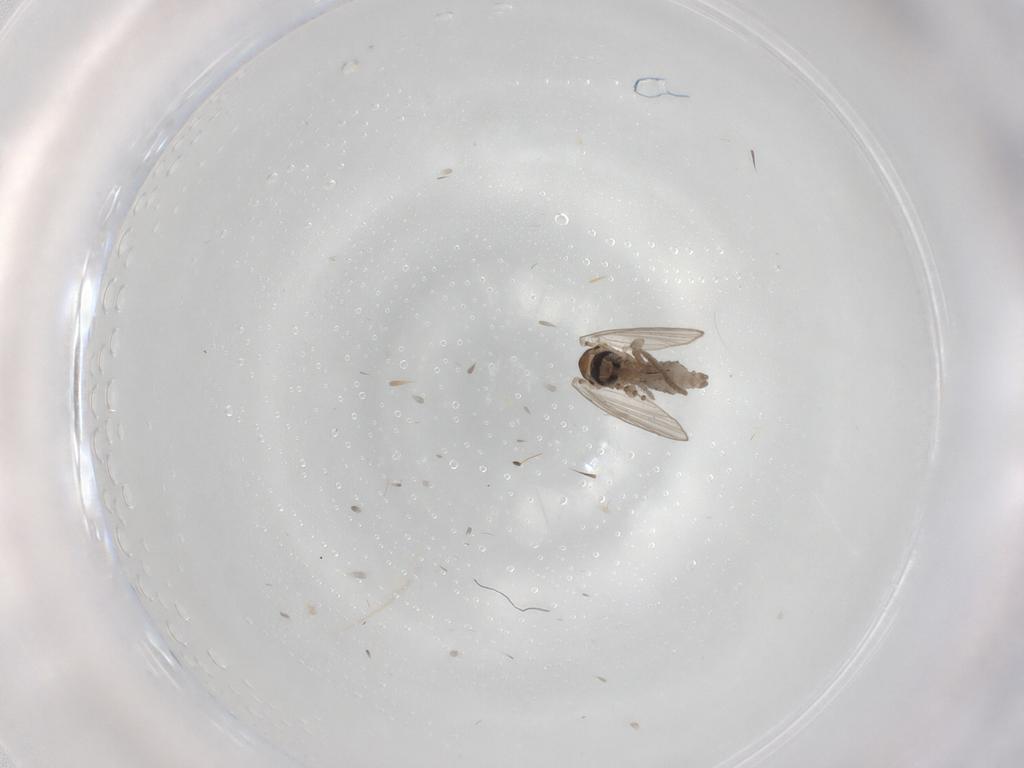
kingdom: Animalia
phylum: Arthropoda
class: Insecta
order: Diptera
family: Psychodidae
